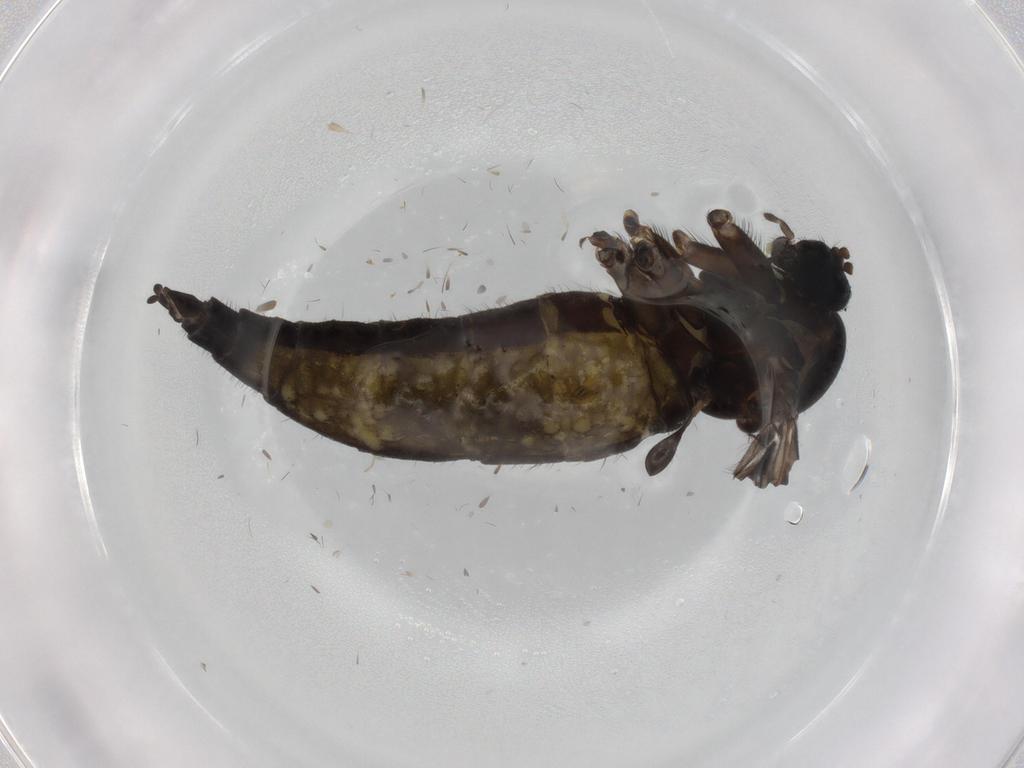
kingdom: Animalia
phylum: Arthropoda
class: Insecta
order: Diptera
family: Sciaridae
